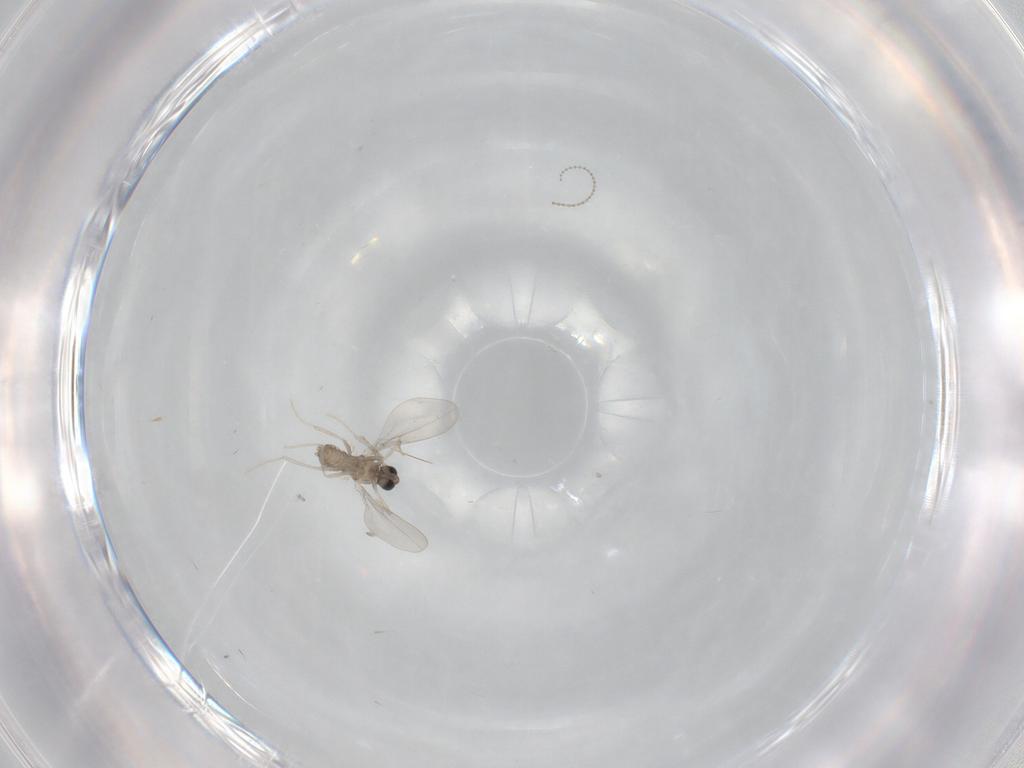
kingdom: Animalia
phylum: Arthropoda
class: Insecta
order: Diptera
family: Cecidomyiidae
